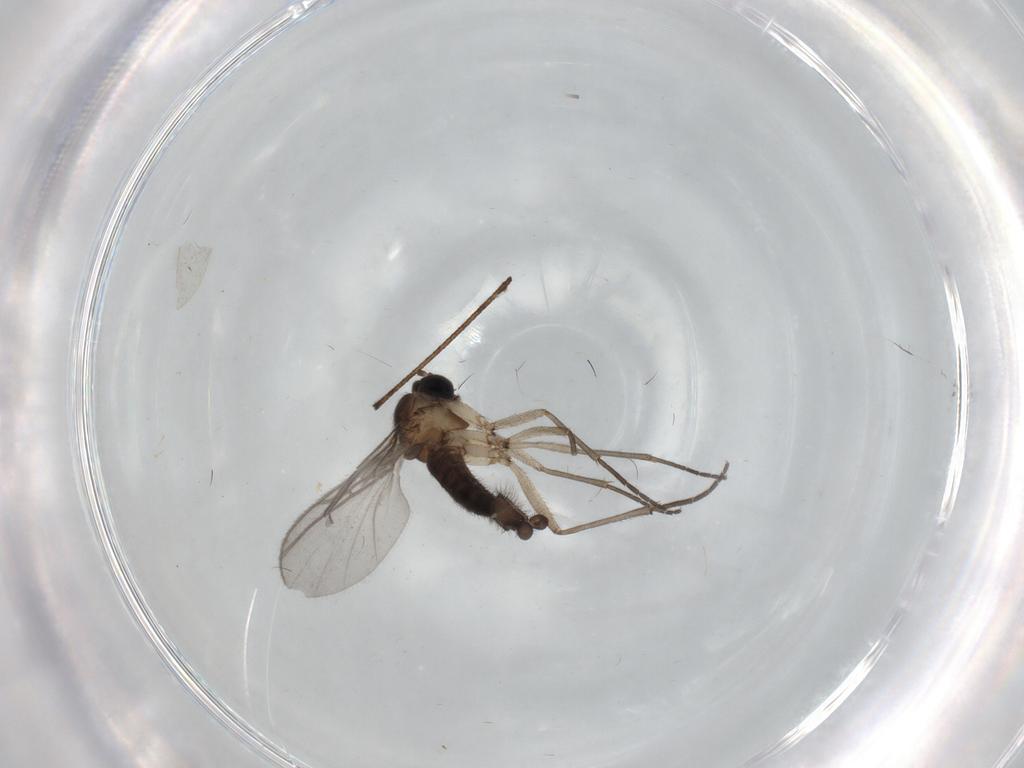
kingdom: Animalia
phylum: Arthropoda
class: Insecta
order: Diptera
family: Sciaridae
